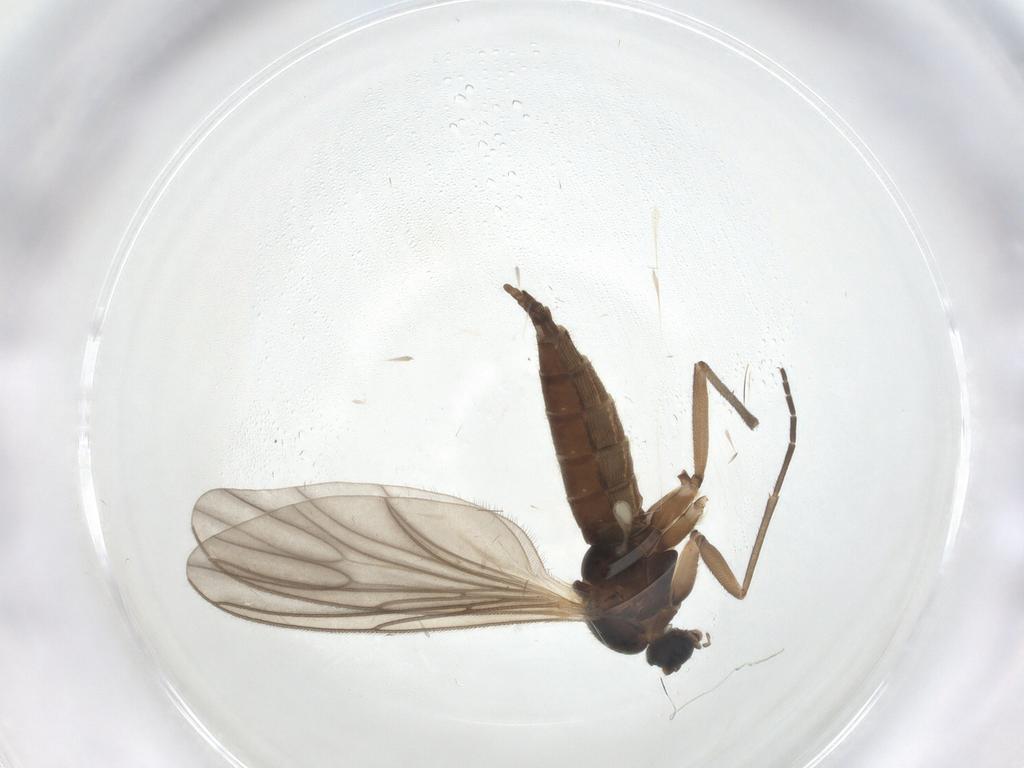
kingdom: Animalia
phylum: Arthropoda
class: Insecta
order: Diptera
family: Sciaridae
